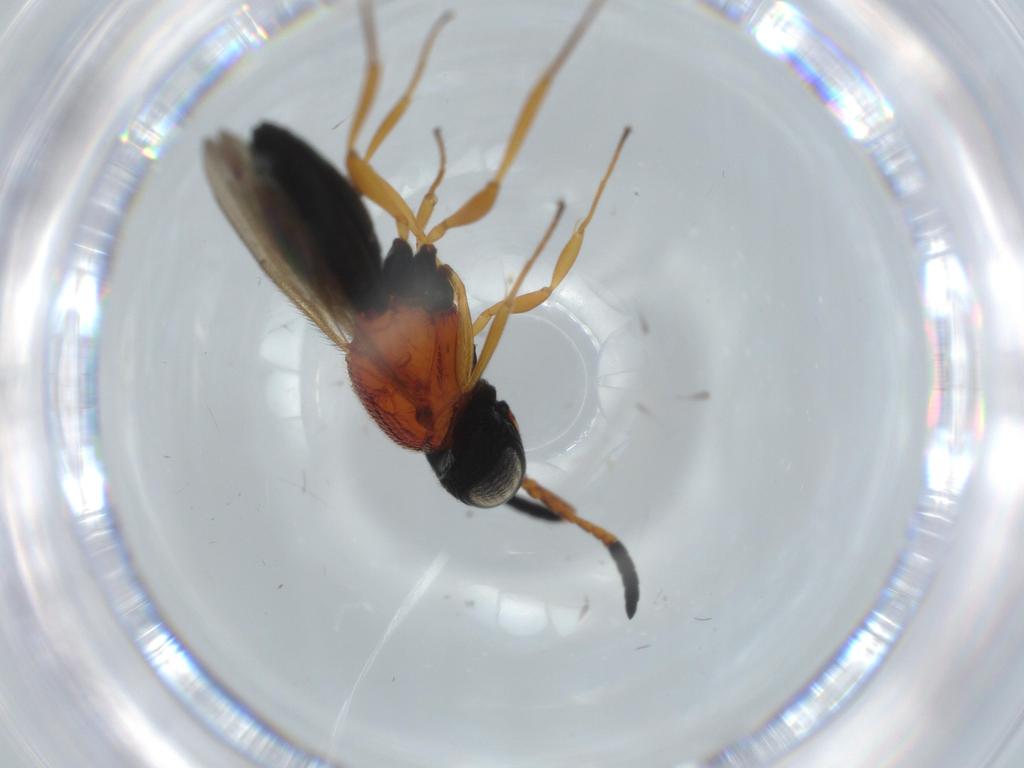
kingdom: Animalia
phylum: Arthropoda
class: Insecta
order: Hymenoptera
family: Scelionidae
